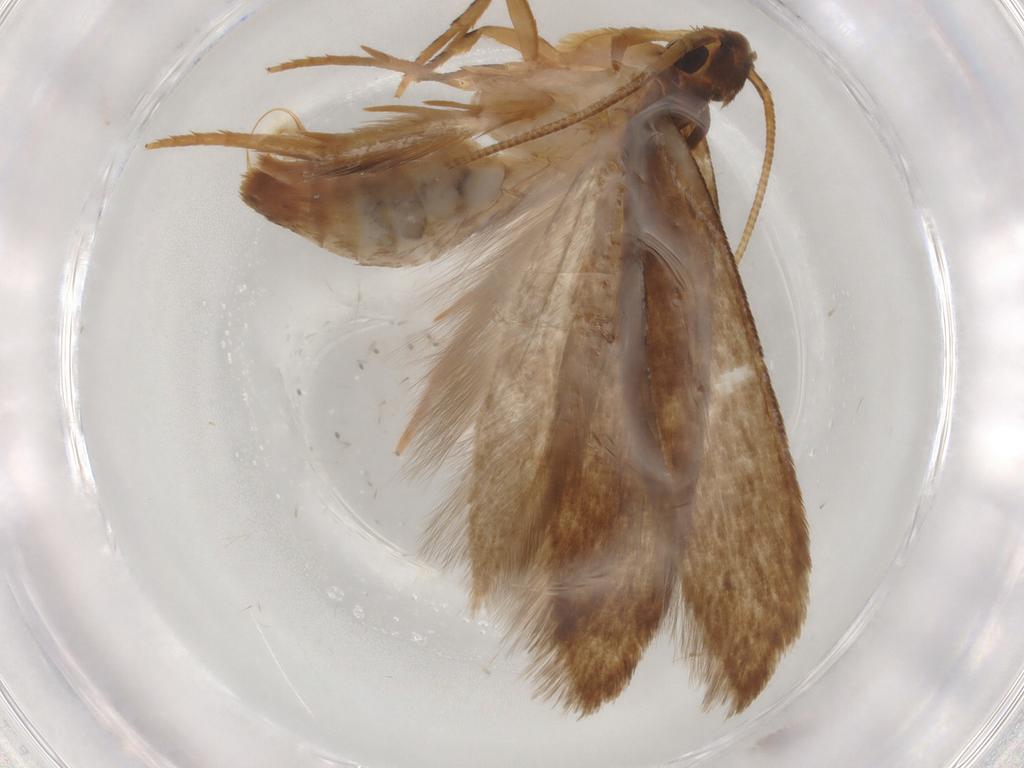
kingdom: Animalia
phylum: Arthropoda
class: Insecta
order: Lepidoptera
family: Tineidae
